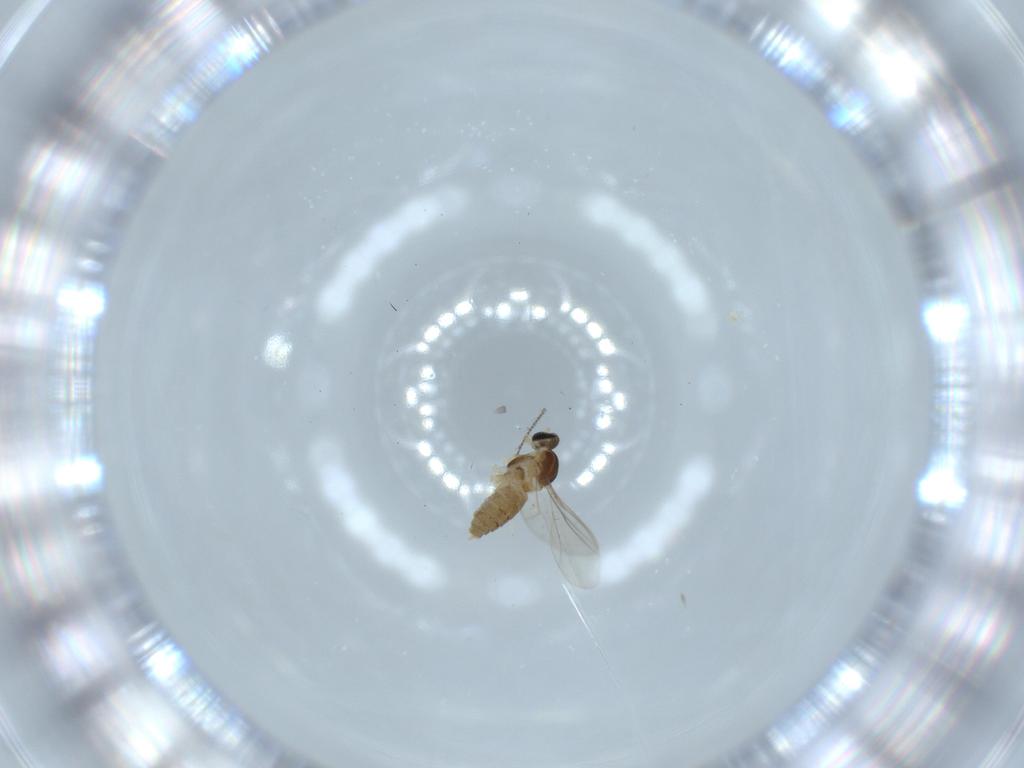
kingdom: Animalia
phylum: Arthropoda
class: Insecta
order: Diptera
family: Cecidomyiidae
